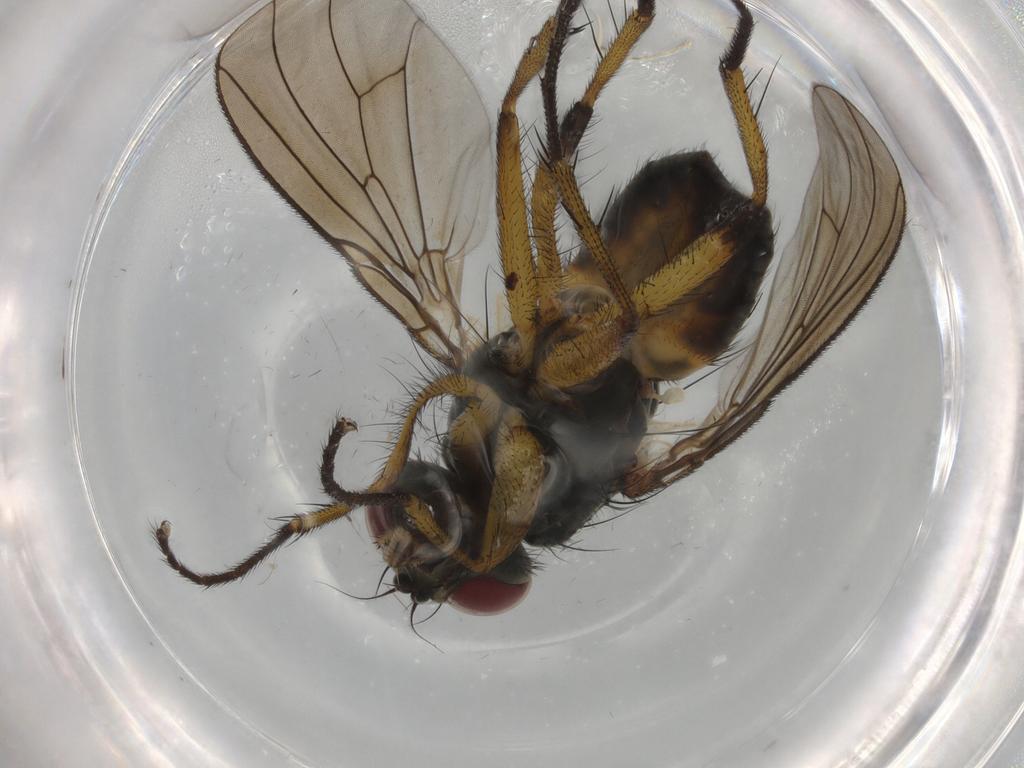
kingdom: Animalia
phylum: Arthropoda
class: Insecta
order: Diptera
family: Muscidae
